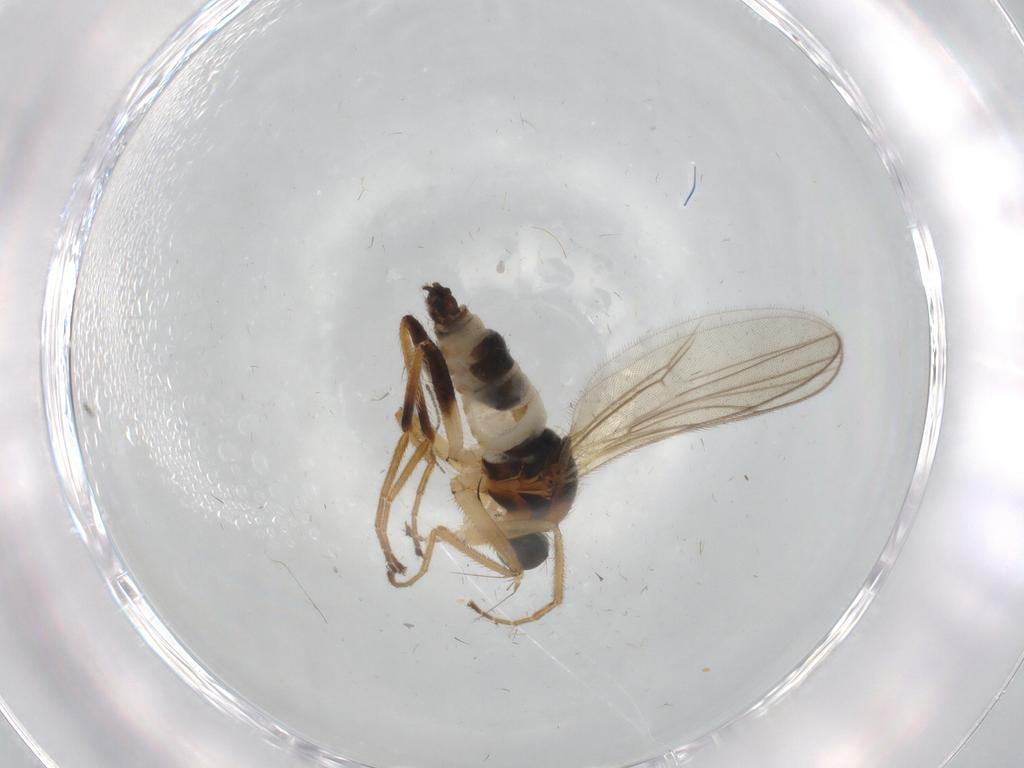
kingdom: Animalia
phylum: Arthropoda
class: Insecta
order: Diptera
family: Hybotidae
